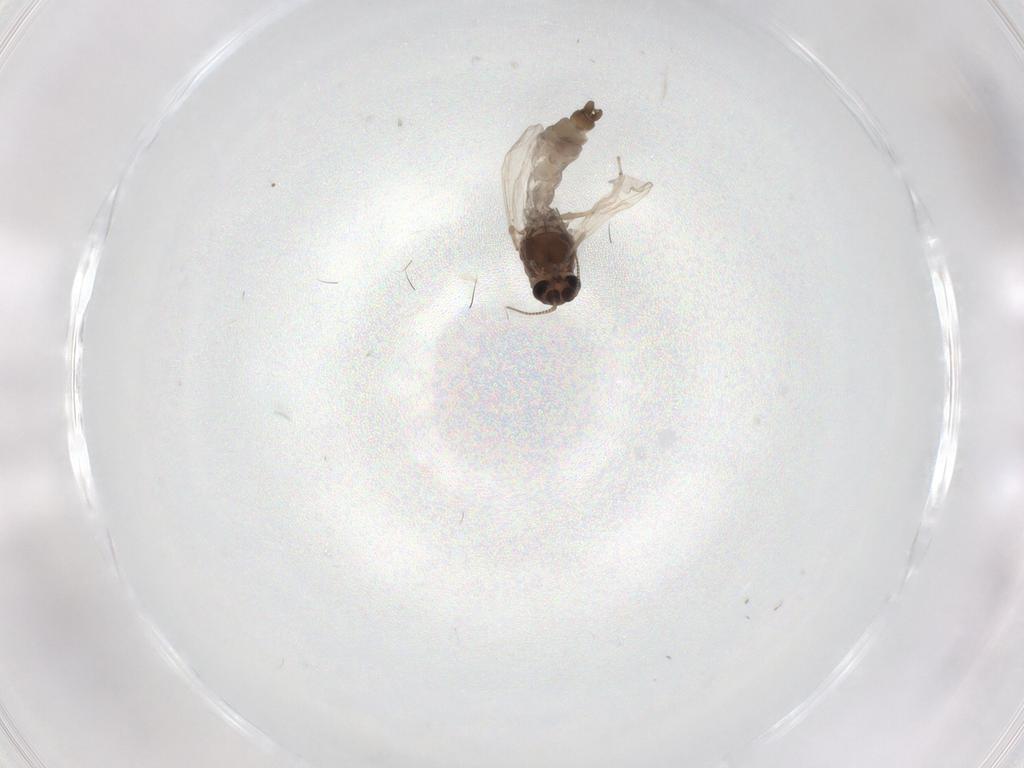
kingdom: Animalia
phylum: Arthropoda
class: Insecta
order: Diptera
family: Chironomidae
